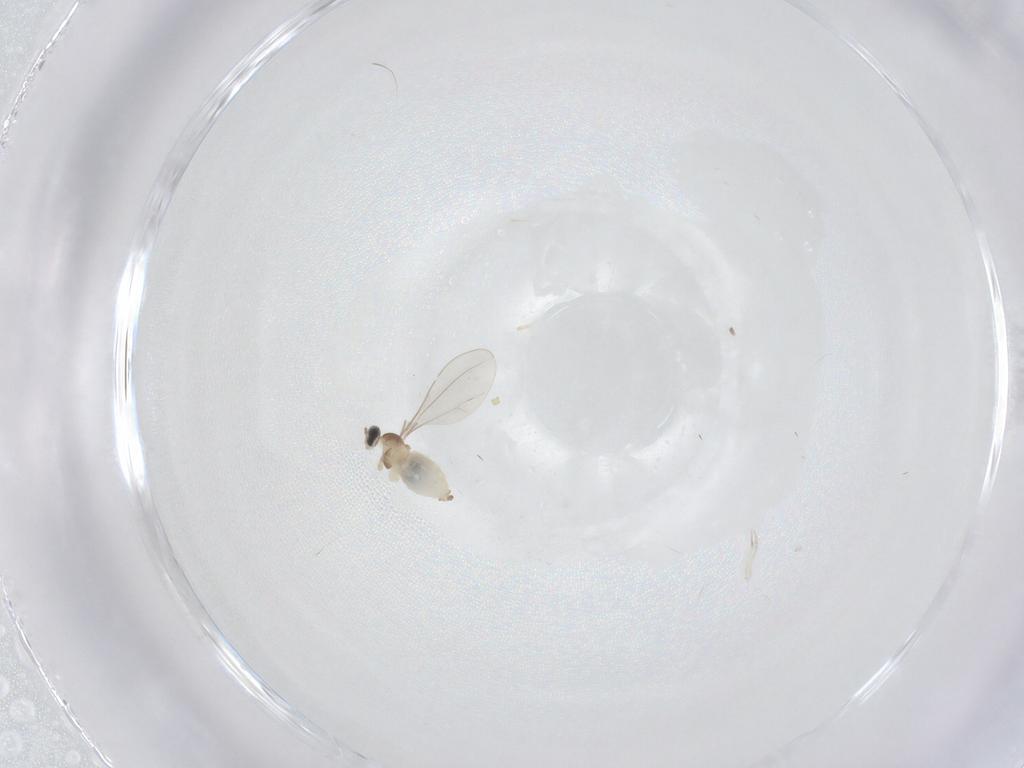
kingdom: Animalia
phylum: Arthropoda
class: Insecta
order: Diptera
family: Cecidomyiidae
